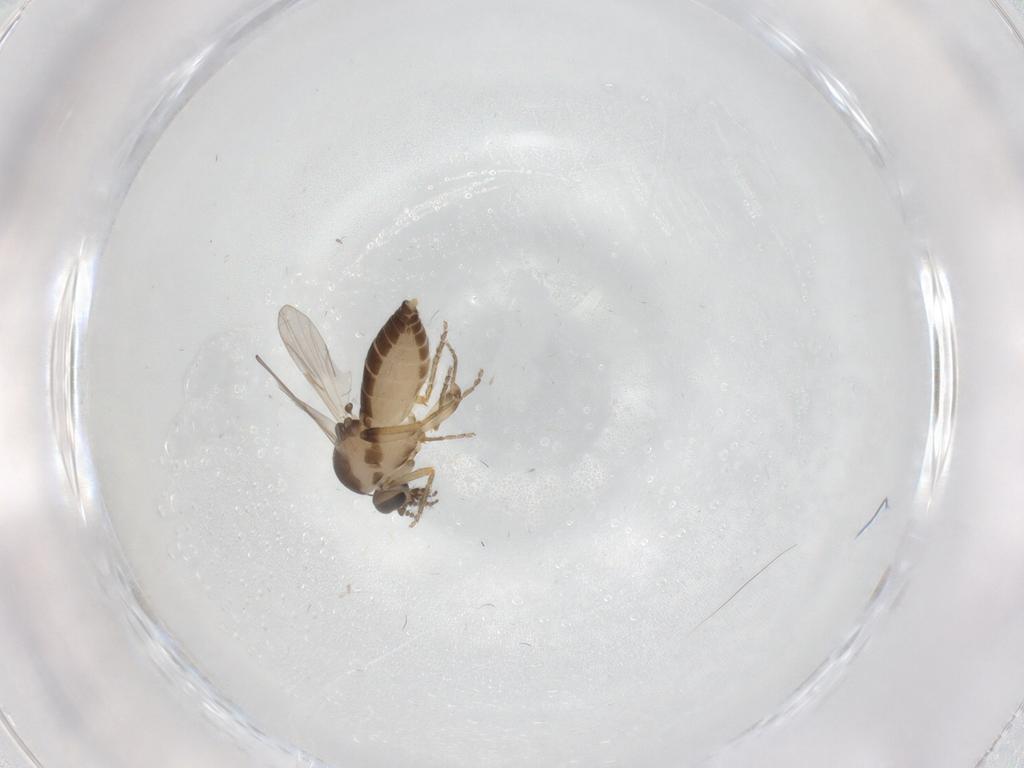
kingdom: Animalia
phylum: Arthropoda
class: Insecta
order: Diptera
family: Ceratopogonidae
